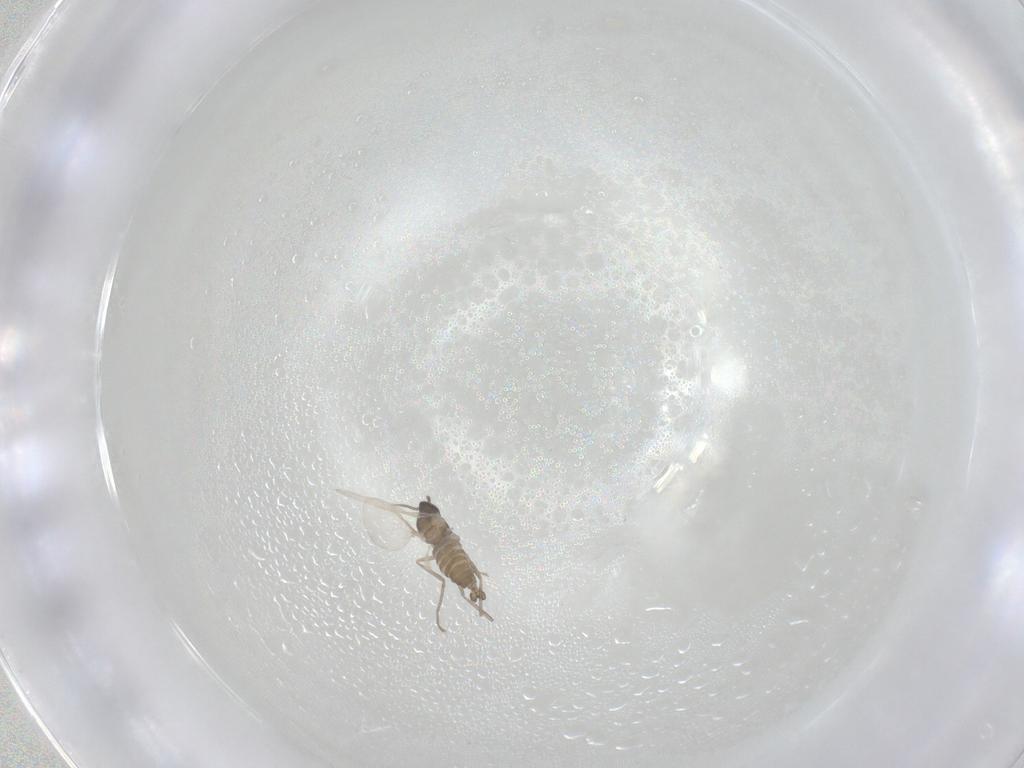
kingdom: Animalia
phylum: Arthropoda
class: Insecta
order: Diptera
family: Cecidomyiidae
